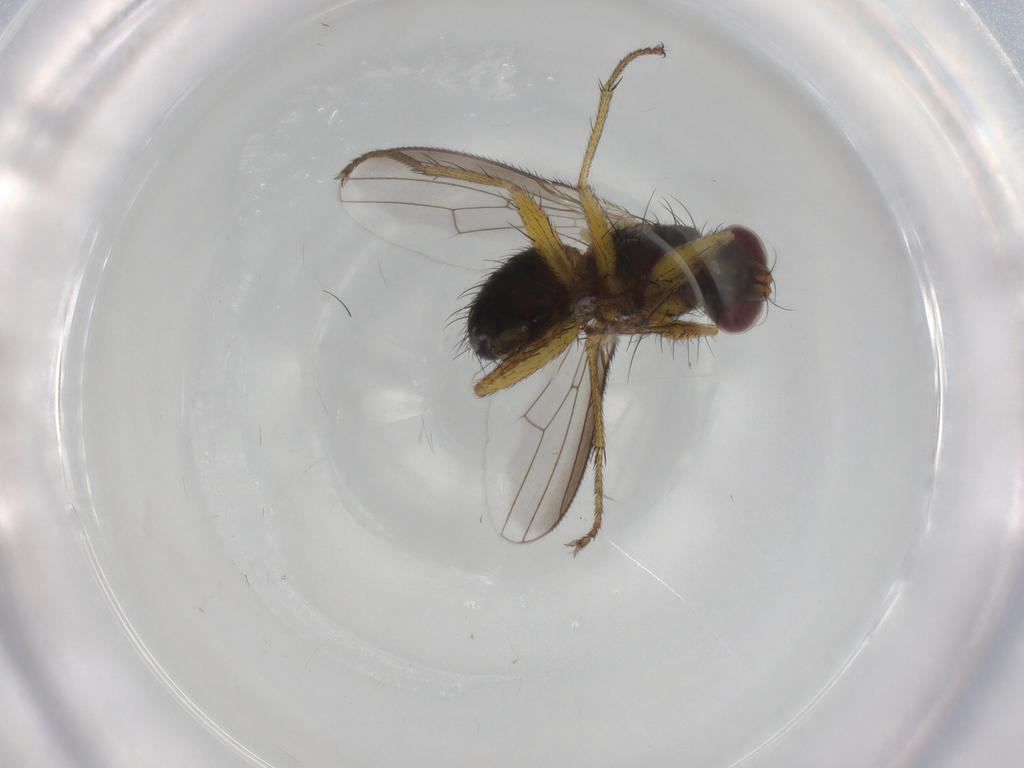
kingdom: Animalia
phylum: Arthropoda
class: Insecta
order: Diptera
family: Muscidae
